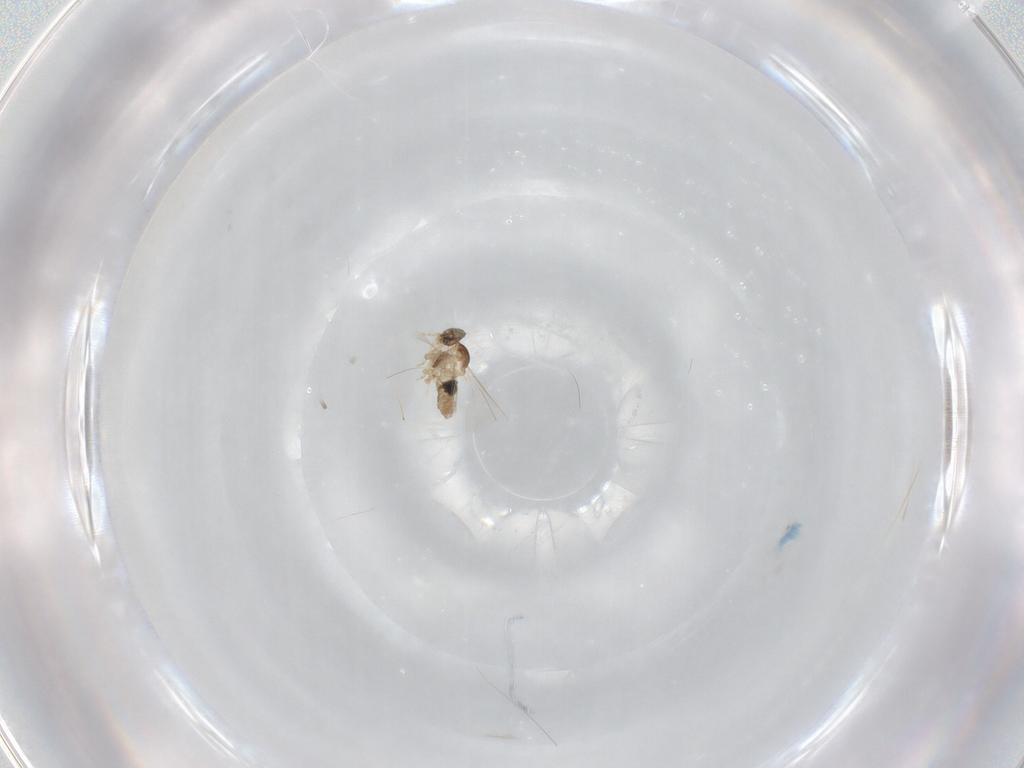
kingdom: Animalia
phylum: Arthropoda
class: Insecta
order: Diptera
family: Cecidomyiidae
